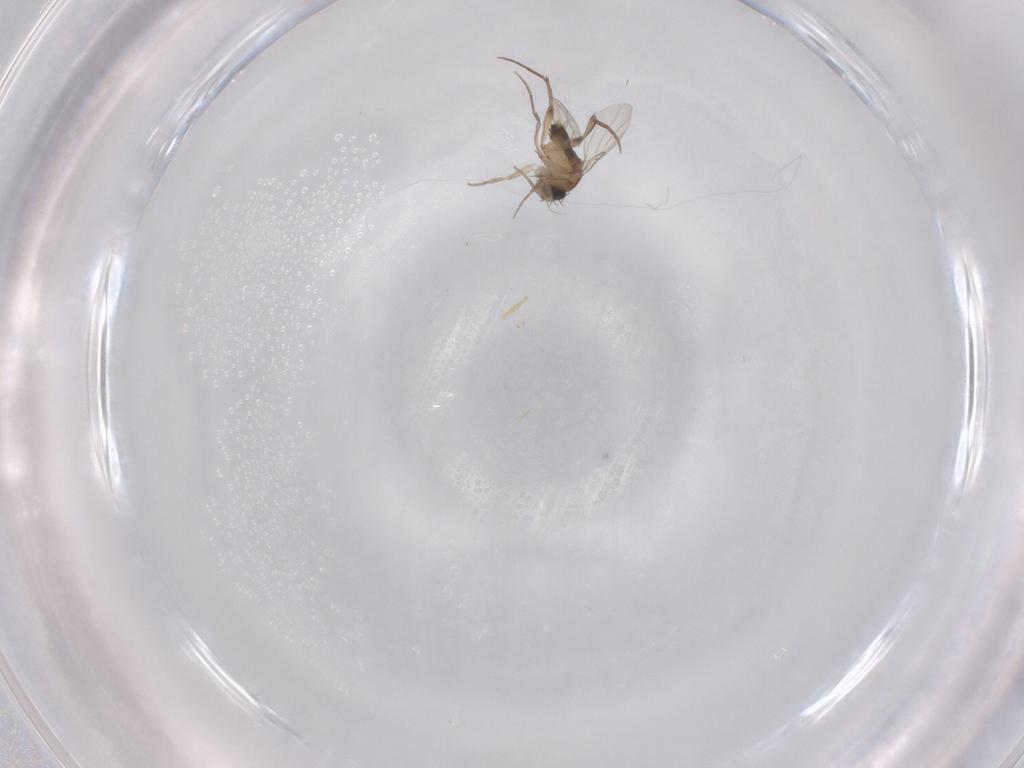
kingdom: Animalia
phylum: Arthropoda
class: Insecta
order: Diptera
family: Phoridae
